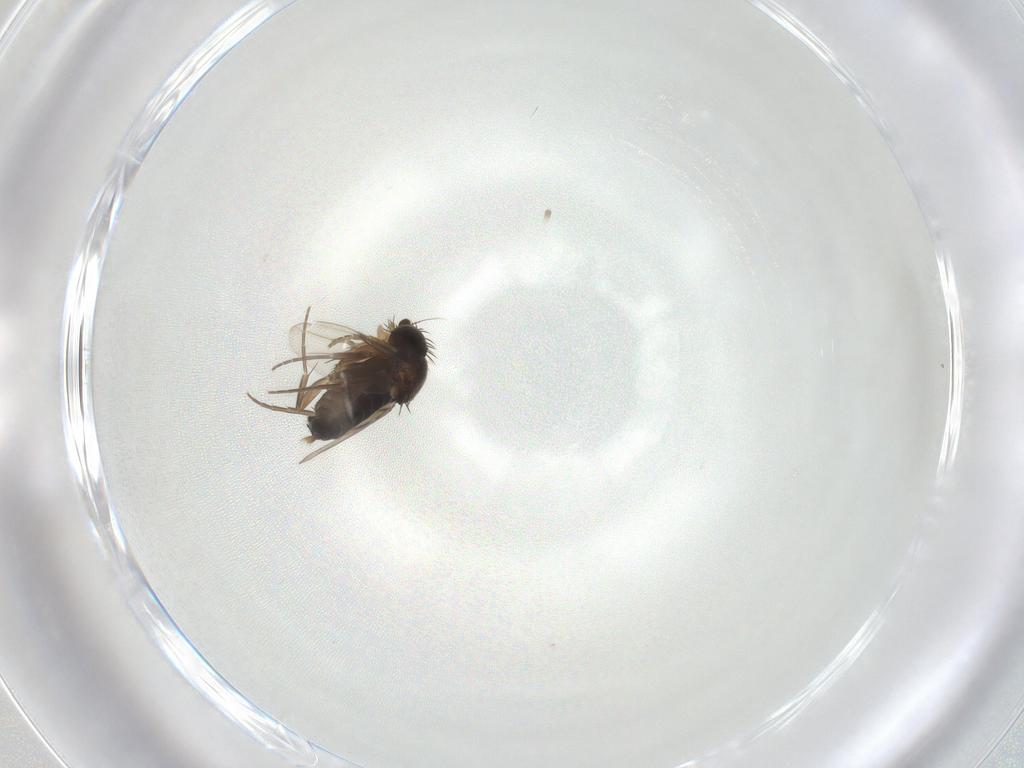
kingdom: Animalia
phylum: Arthropoda
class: Insecta
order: Diptera
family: Phoridae
